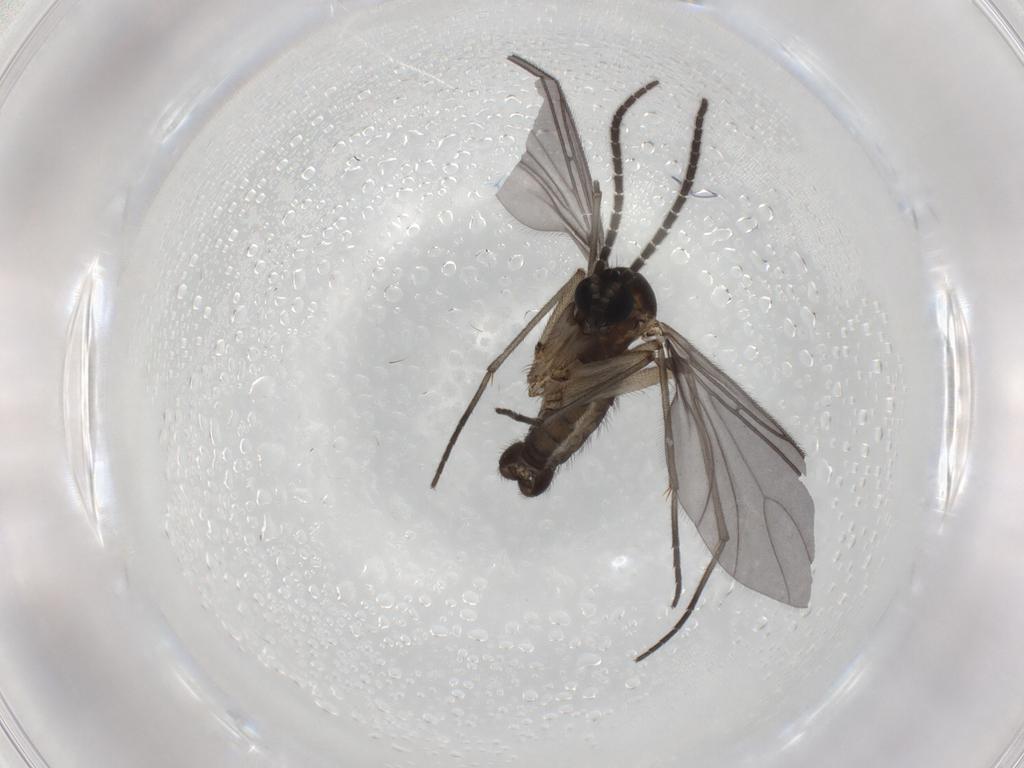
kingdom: Animalia
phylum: Arthropoda
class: Insecta
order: Diptera
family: Sciaridae
